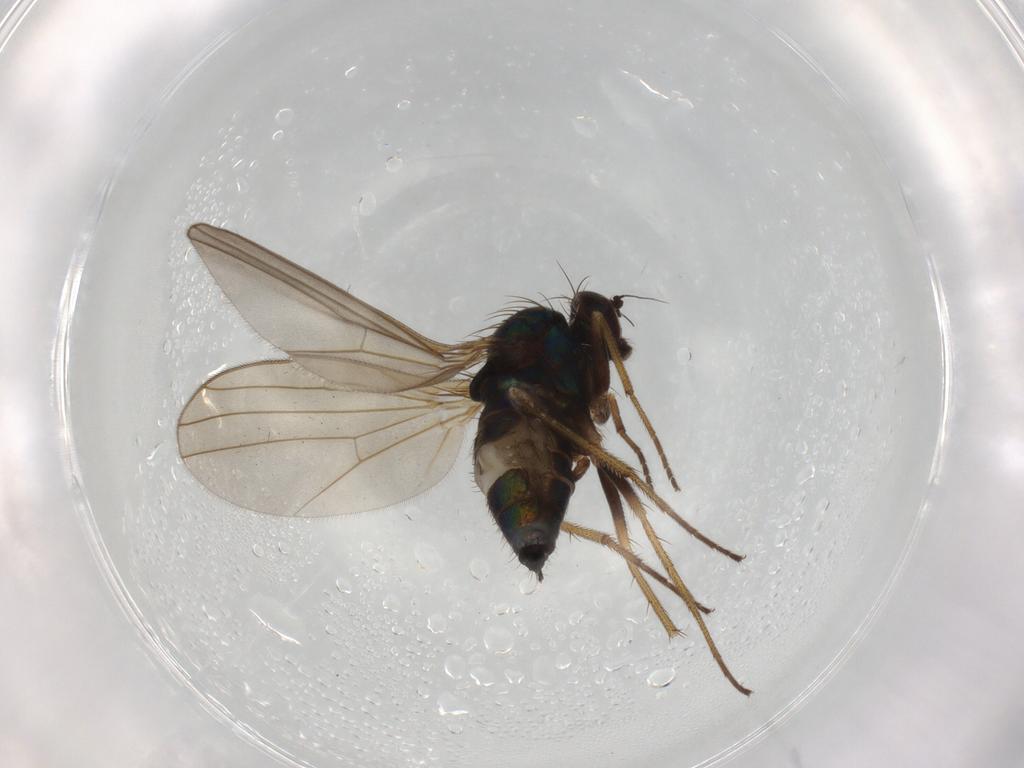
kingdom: Animalia
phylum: Arthropoda
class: Insecta
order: Diptera
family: Dolichopodidae
